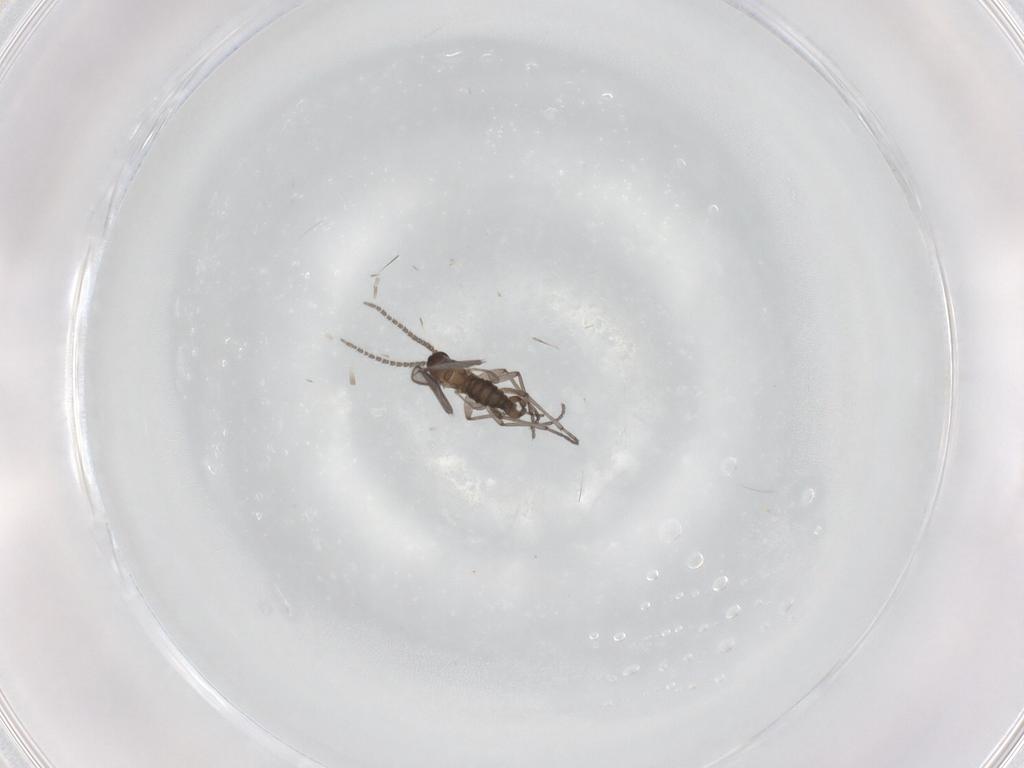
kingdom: Animalia
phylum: Arthropoda
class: Insecta
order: Diptera
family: Sciaridae
